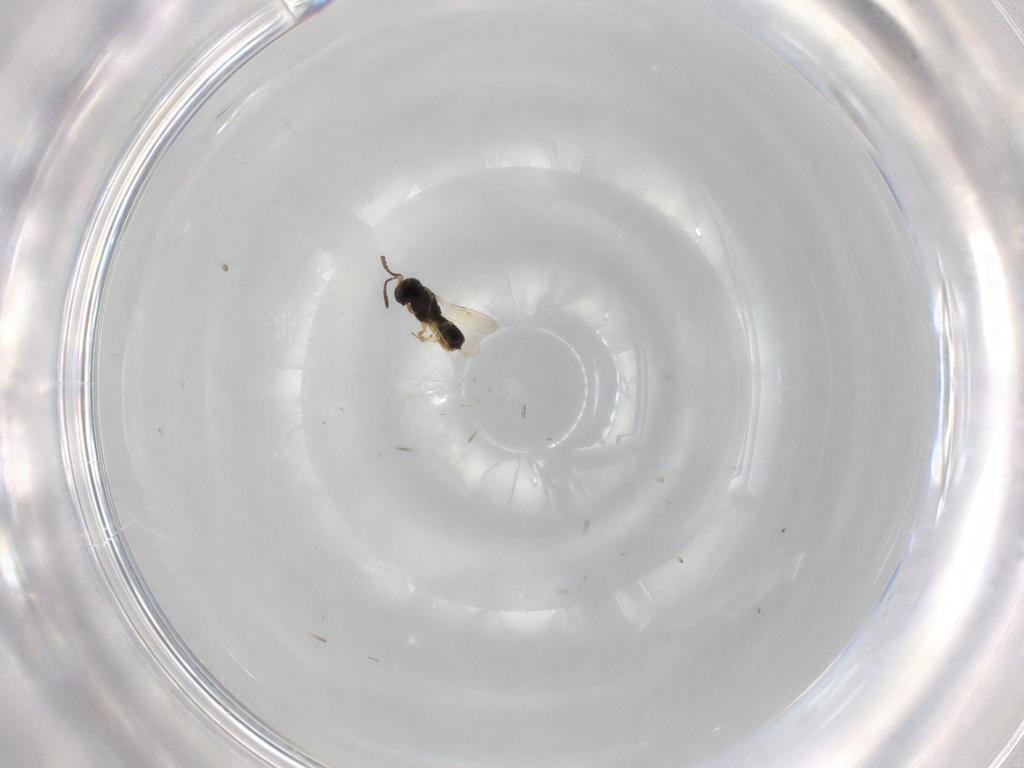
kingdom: Animalia
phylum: Arthropoda
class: Insecta
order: Hymenoptera
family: Scelionidae
